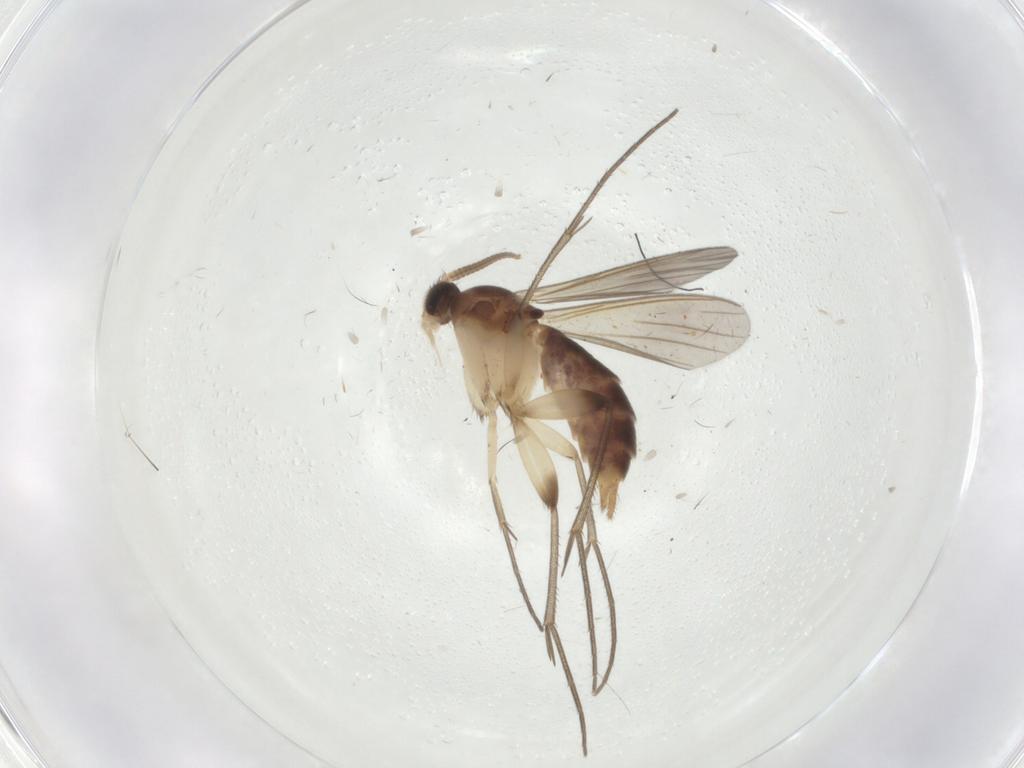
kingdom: Animalia
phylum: Arthropoda
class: Insecta
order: Diptera
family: Mycetophilidae
